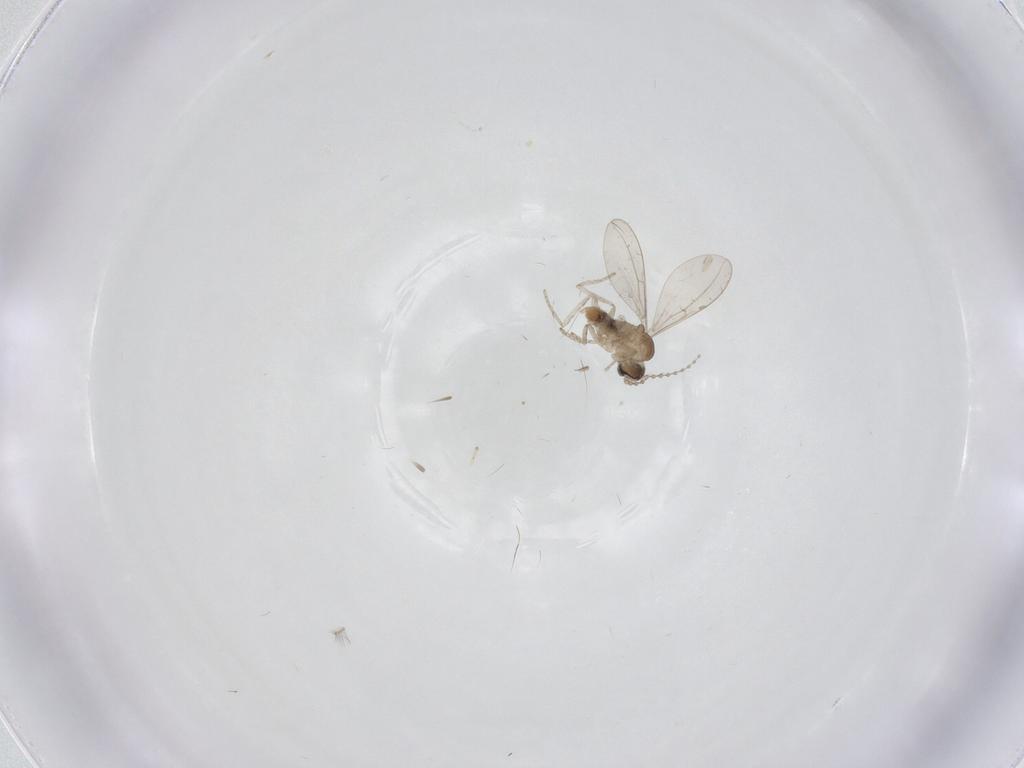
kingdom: Animalia
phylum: Arthropoda
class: Insecta
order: Diptera
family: Cecidomyiidae
